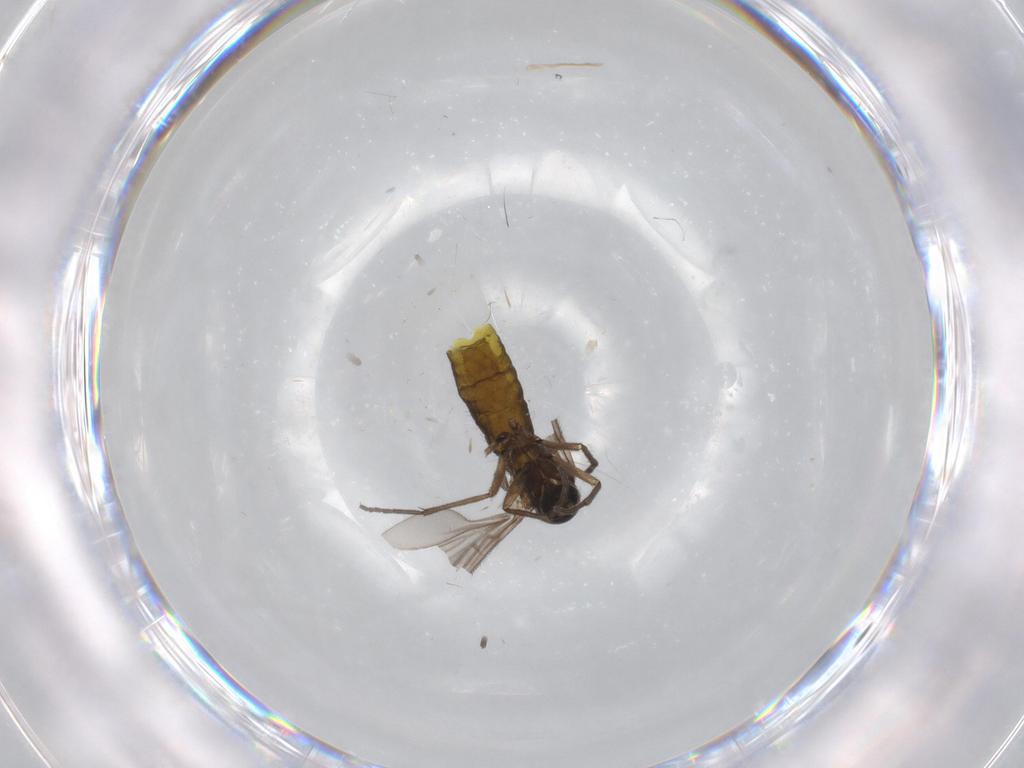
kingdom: Animalia
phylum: Arthropoda
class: Insecta
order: Diptera
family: Sciaridae
